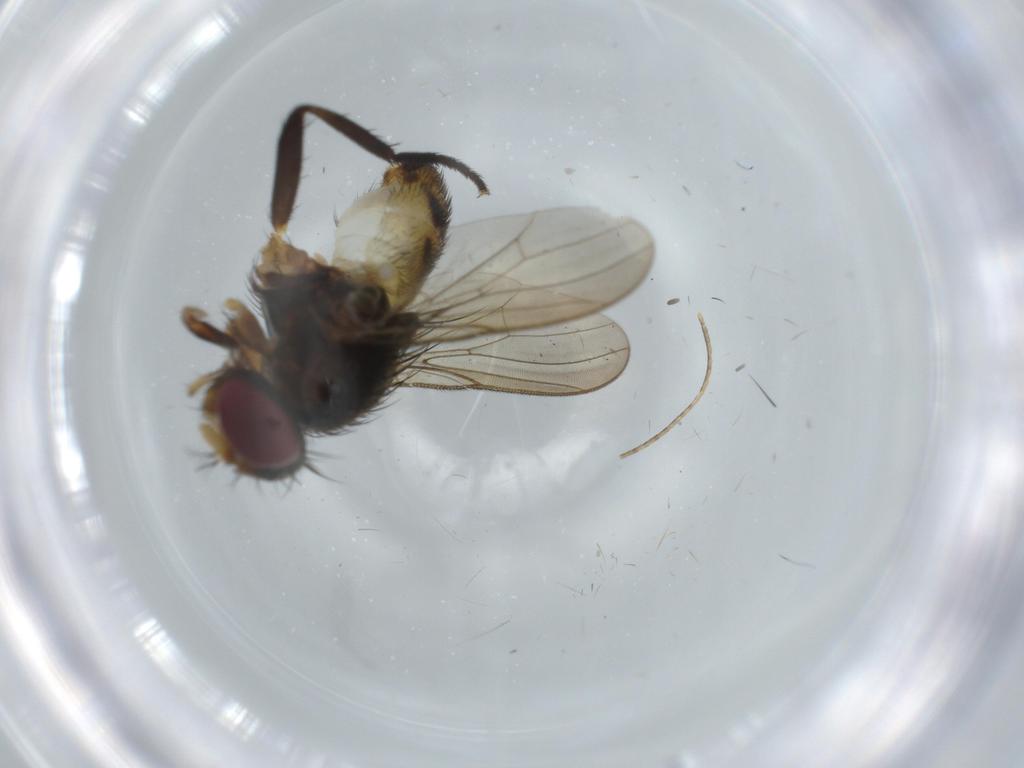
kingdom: Animalia
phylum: Arthropoda
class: Insecta
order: Diptera
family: Anthomyiidae
